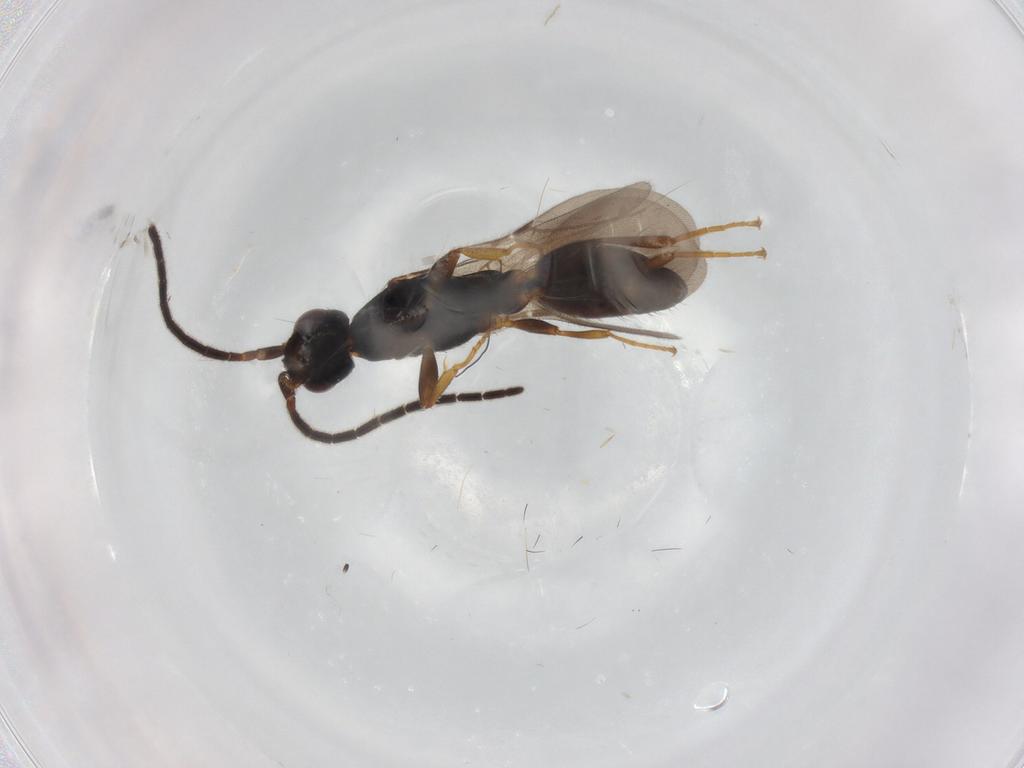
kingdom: Animalia
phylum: Arthropoda
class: Insecta
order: Hymenoptera
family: Bethylidae
